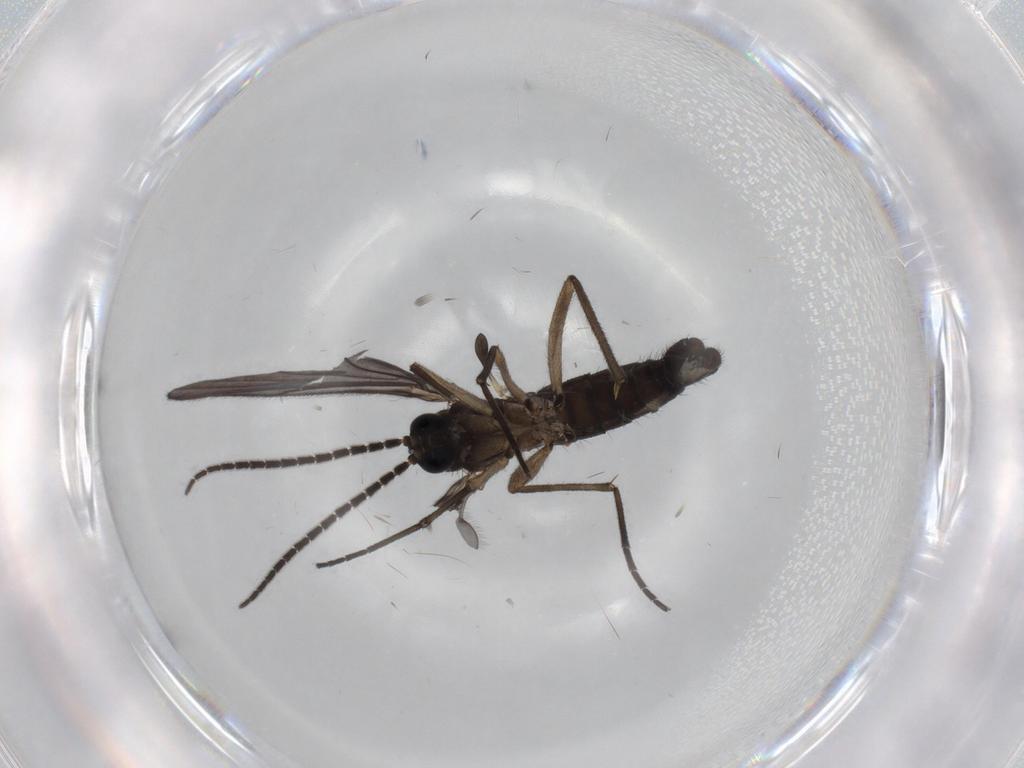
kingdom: Animalia
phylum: Arthropoda
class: Insecta
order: Diptera
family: Sciaridae
